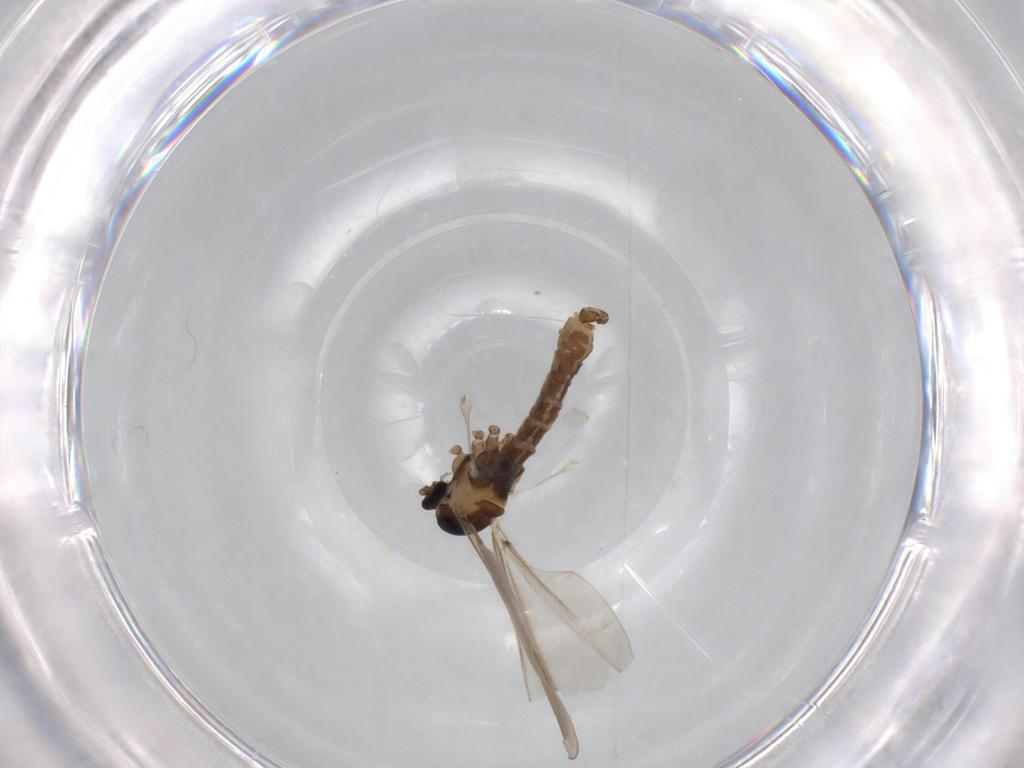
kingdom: Animalia
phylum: Arthropoda
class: Insecta
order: Diptera
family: Cecidomyiidae
